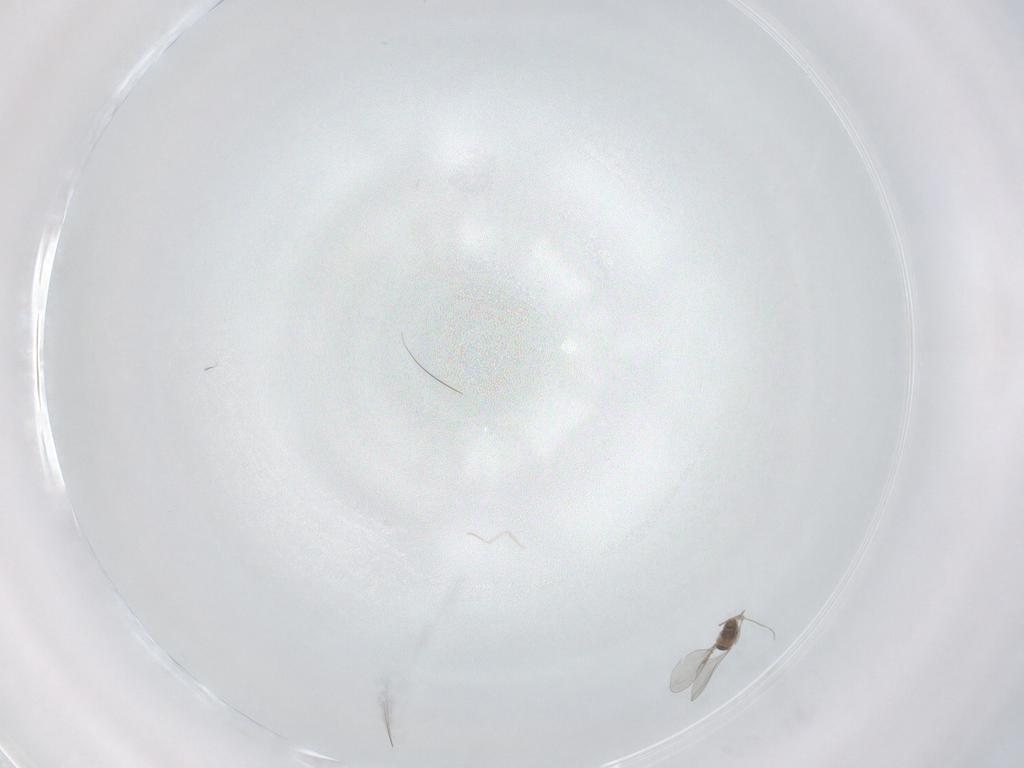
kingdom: Animalia
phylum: Arthropoda
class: Insecta
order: Diptera
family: Cecidomyiidae
